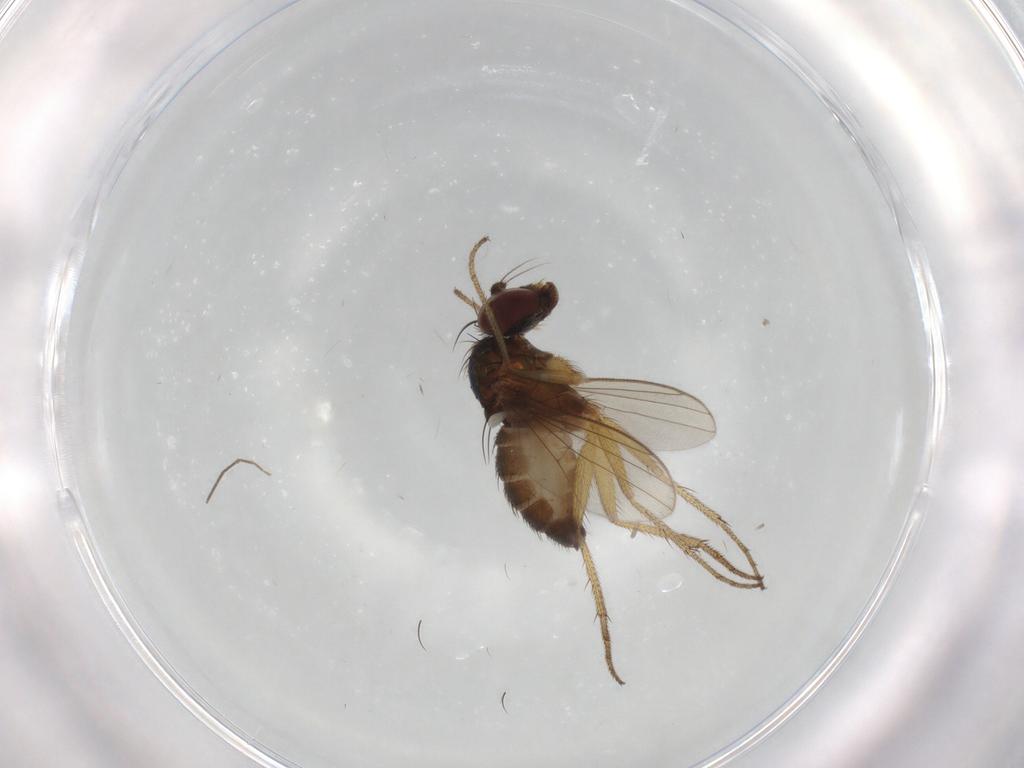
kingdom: Animalia
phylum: Arthropoda
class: Insecta
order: Diptera
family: Dolichopodidae
